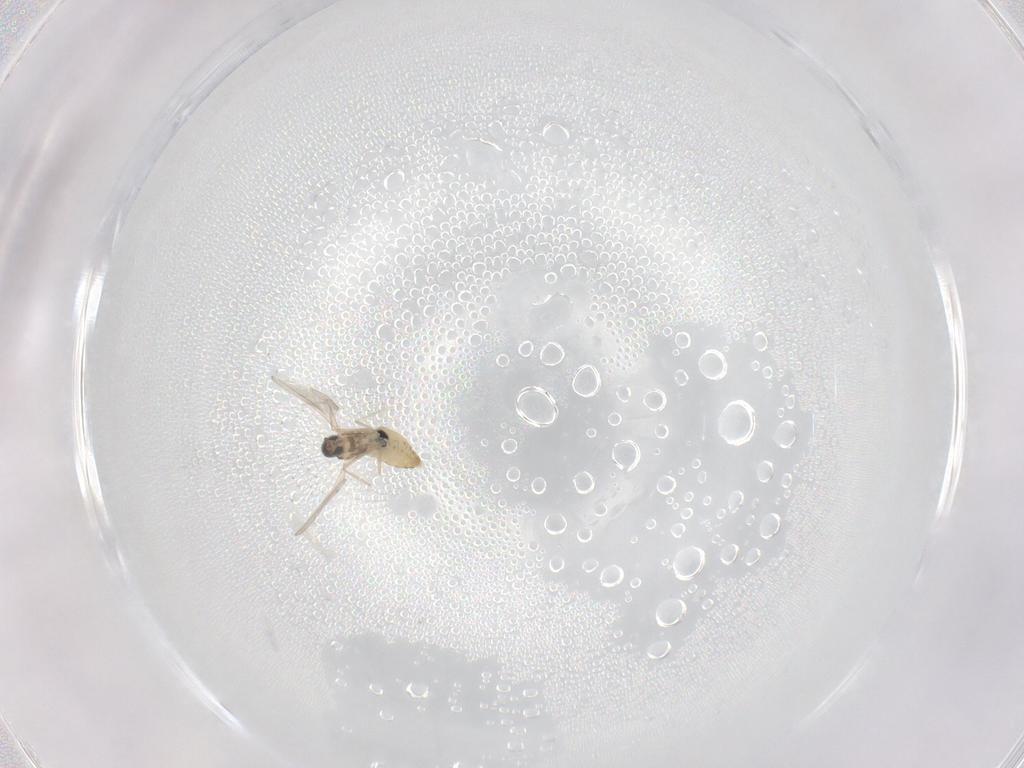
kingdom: Animalia
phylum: Arthropoda
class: Insecta
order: Diptera
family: Cecidomyiidae
